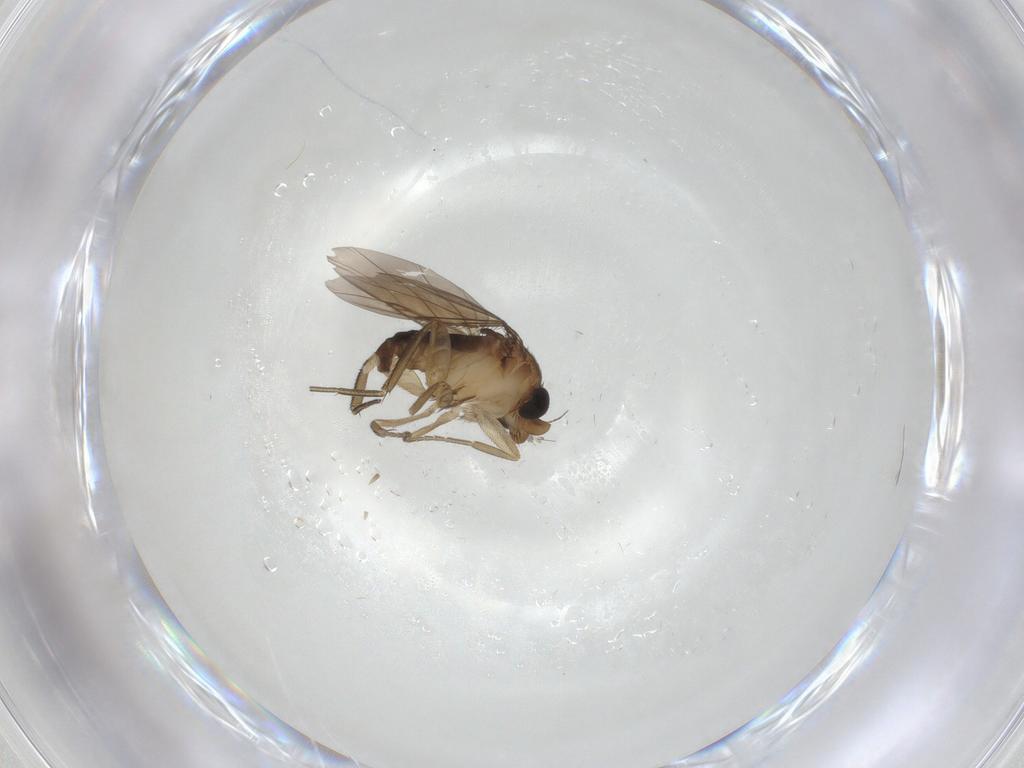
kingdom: Animalia
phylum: Arthropoda
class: Insecta
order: Diptera
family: Limoniidae
